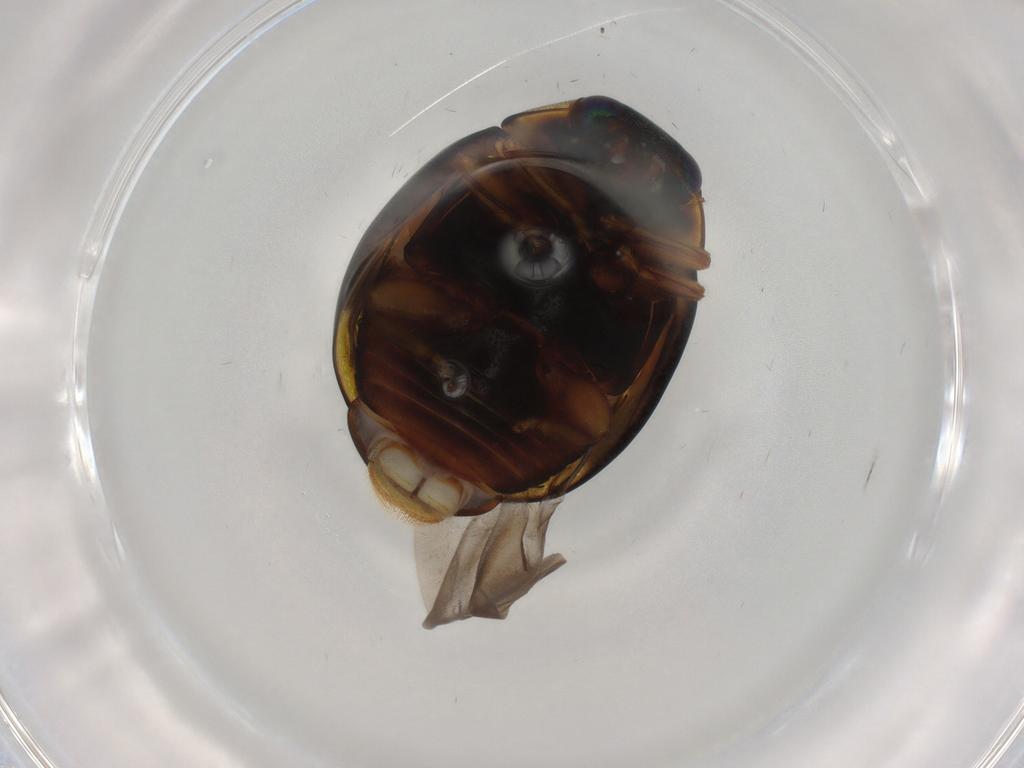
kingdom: Animalia
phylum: Arthropoda
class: Insecta
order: Coleoptera
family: Coccinellidae
